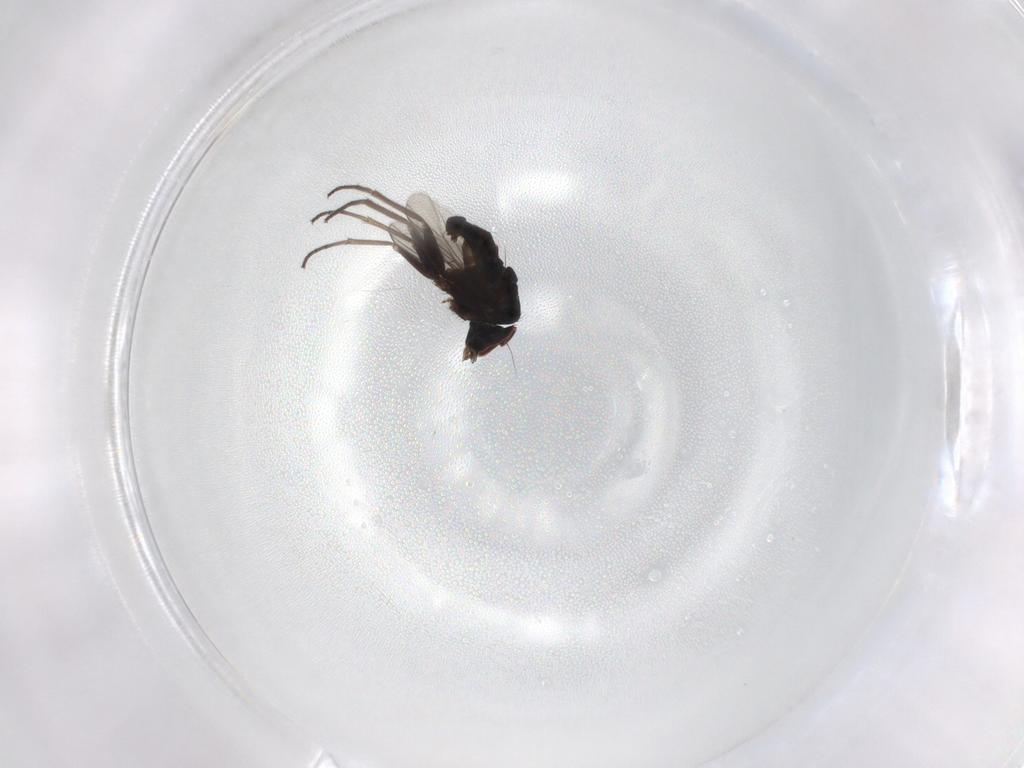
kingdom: Animalia
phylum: Arthropoda
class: Insecta
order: Diptera
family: Dolichopodidae
